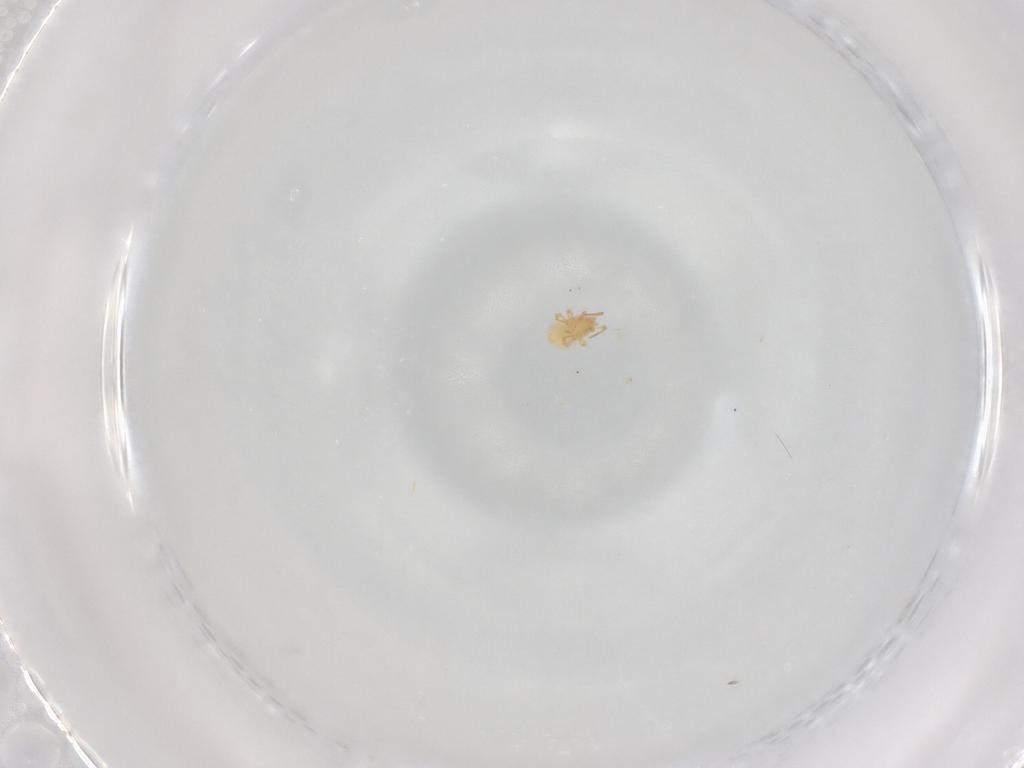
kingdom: Animalia
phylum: Arthropoda
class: Arachnida
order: Mesostigmata
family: Ascidae
